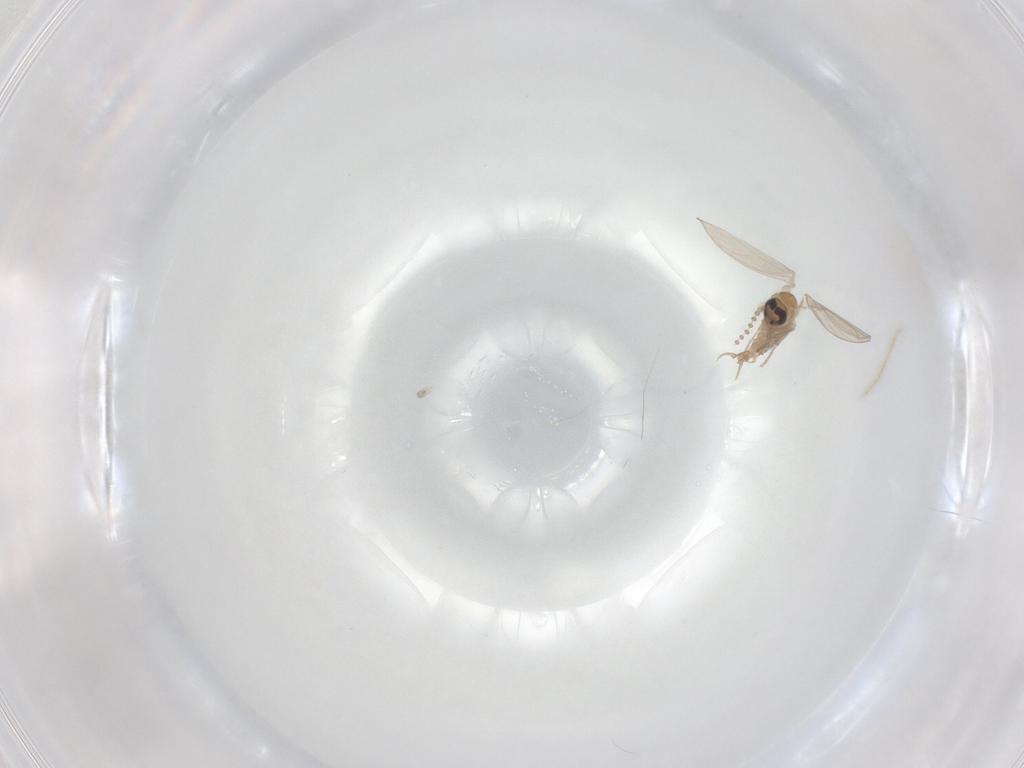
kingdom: Animalia
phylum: Arthropoda
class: Insecta
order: Diptera
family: Psychodidae
